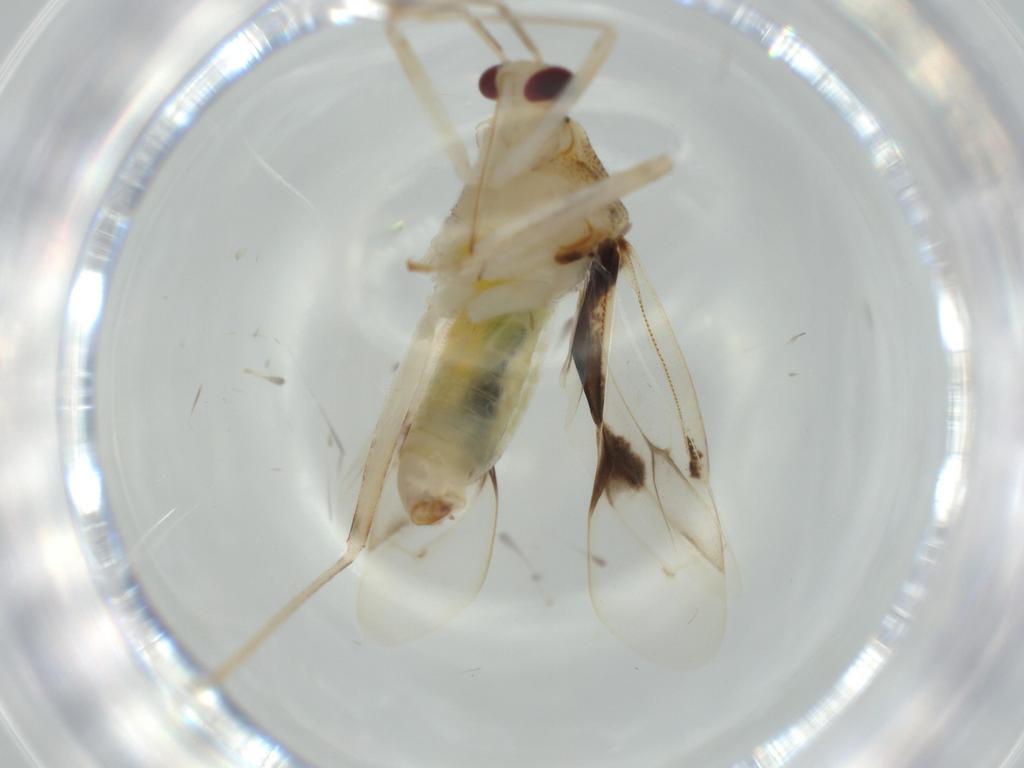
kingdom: Animalia
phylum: Arthropoda
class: Insecta
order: Hemiptera
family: Miridae
